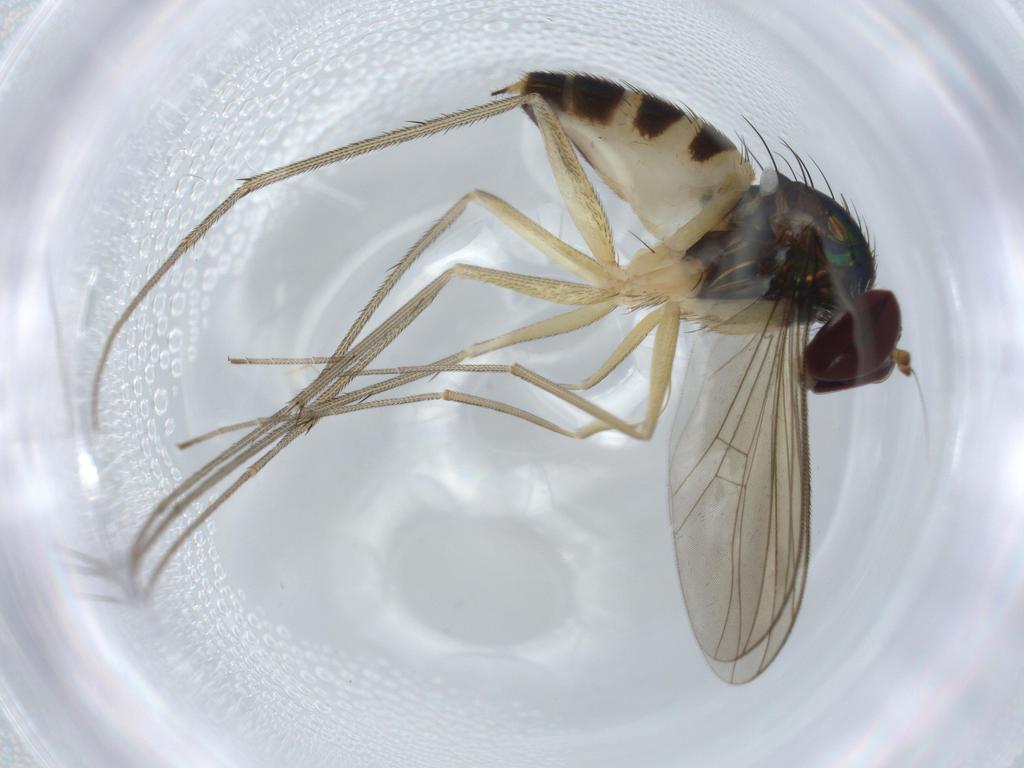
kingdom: Animalia
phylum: Arthropoda
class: Insecta
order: Diptera
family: Dolichopodidae
